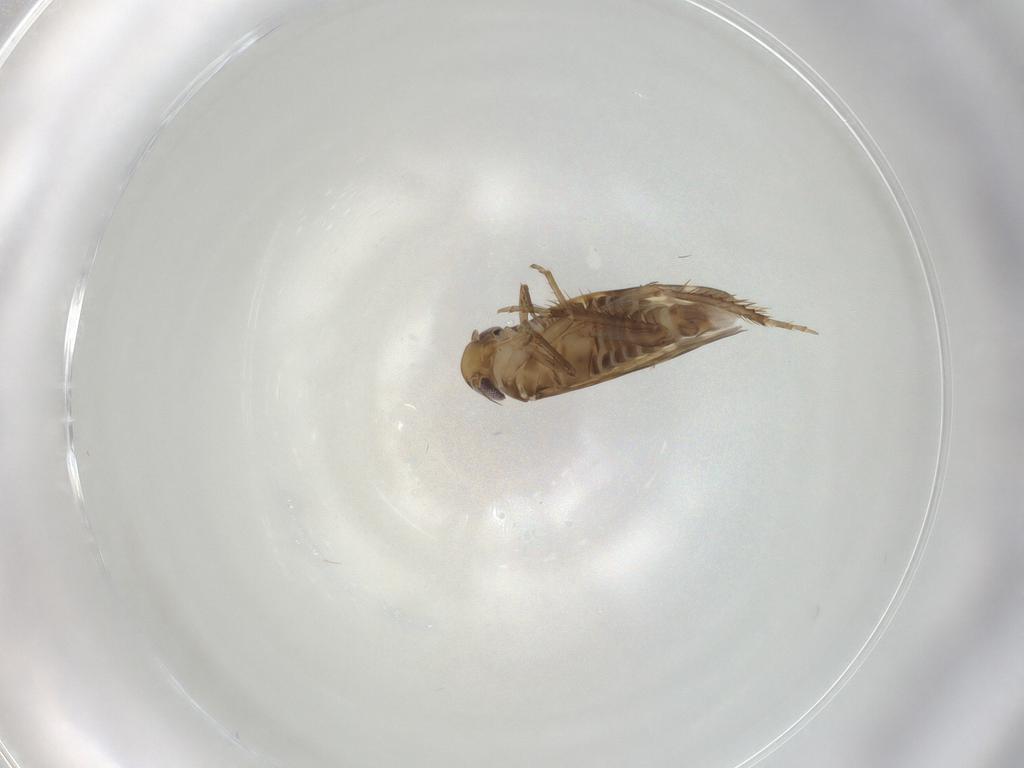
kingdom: Animalia
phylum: Arthropoda
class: Insecta
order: Hemiptera
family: Cicadellidae
